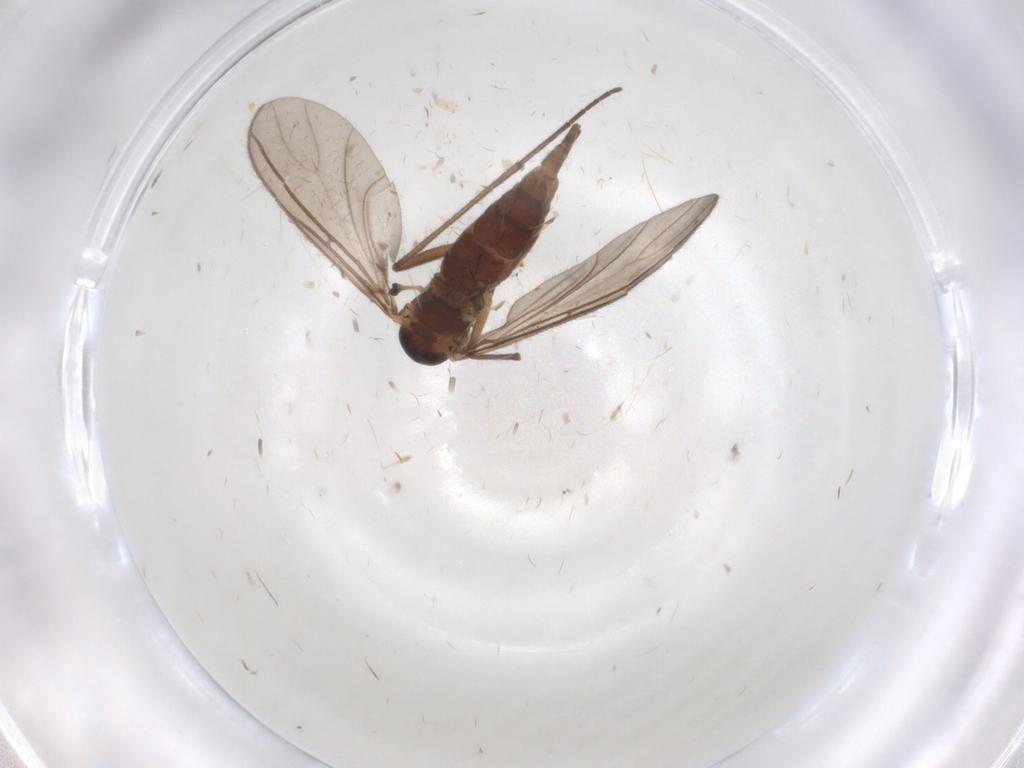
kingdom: Animalia
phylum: Arthropoda
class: Insecta
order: Diptera
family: Sciaridae
